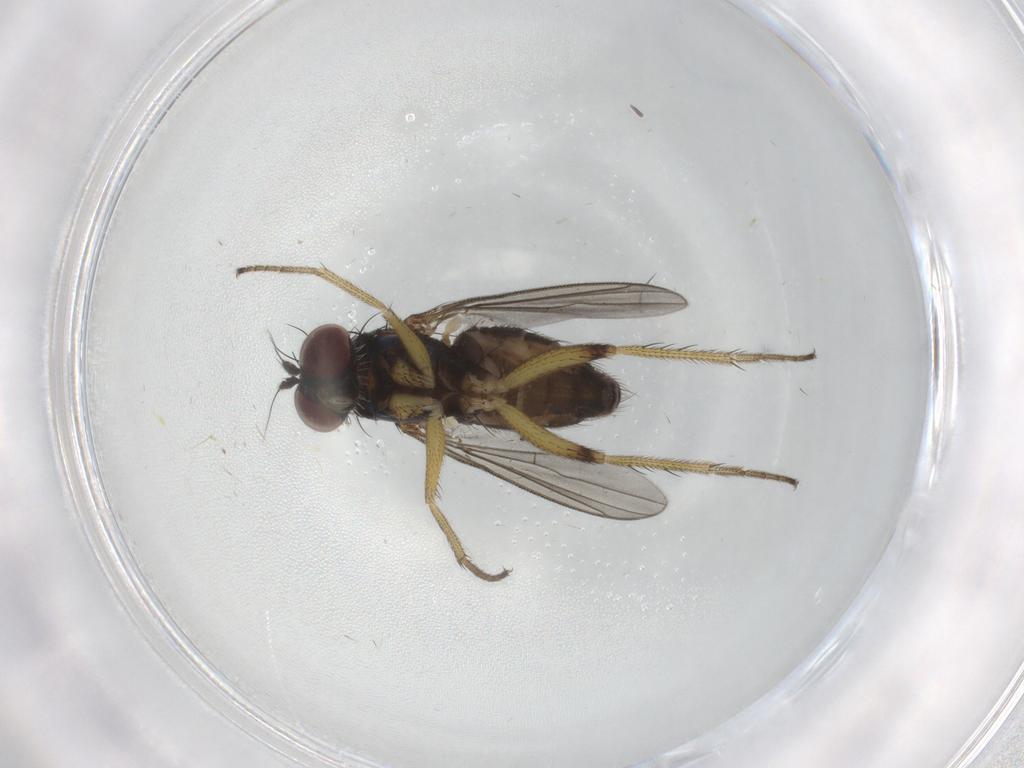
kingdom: Animalia
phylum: Arthropoda
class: Insecta
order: Diptera
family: Dolichopodidae
